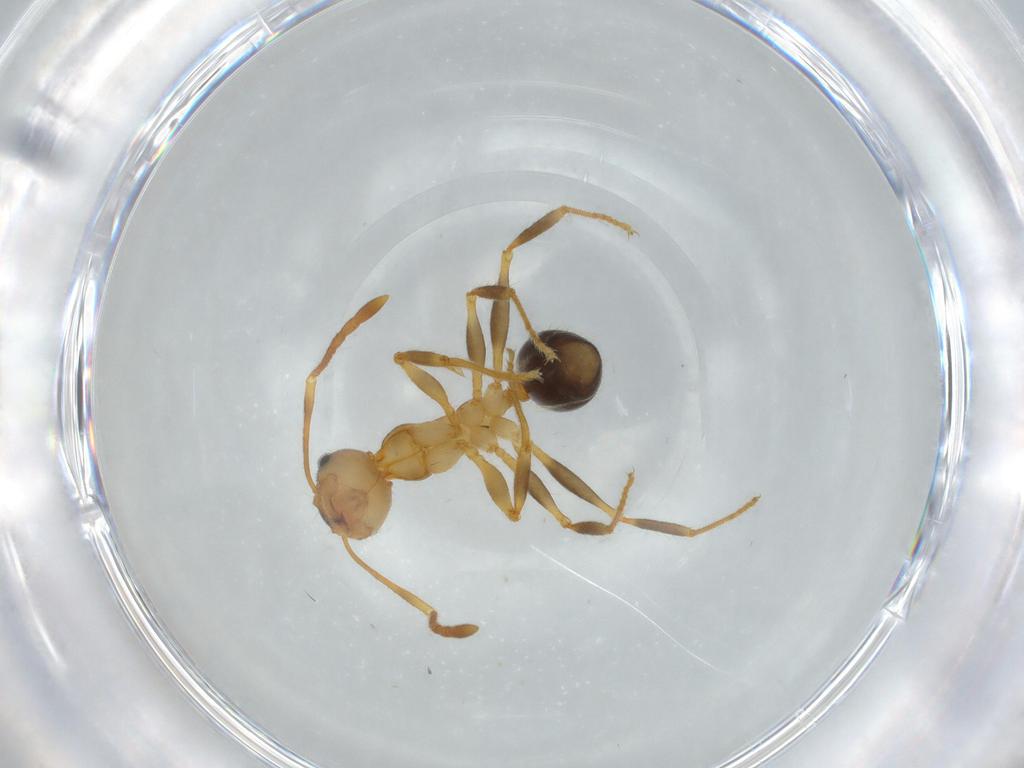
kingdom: Animalia
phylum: Arthropoda
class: Insecta
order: Hymenoptera
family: Formicidae
